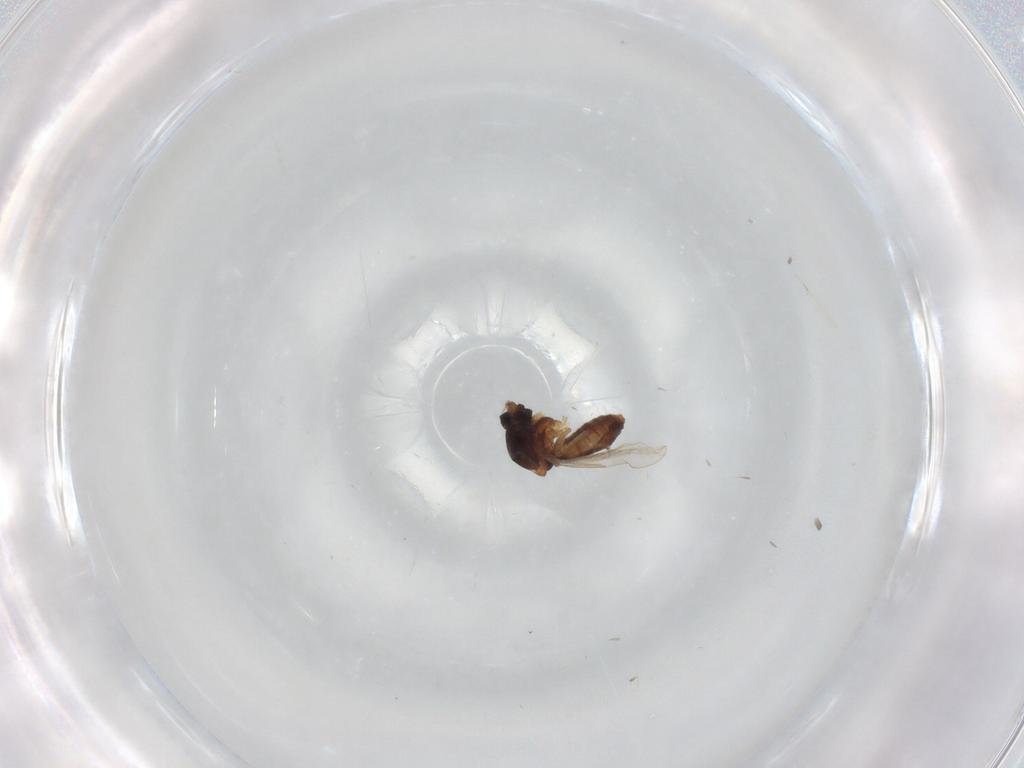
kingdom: Animalia
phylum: Arthropoda
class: Insecta
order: Diptera
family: Ceratopogonidae
